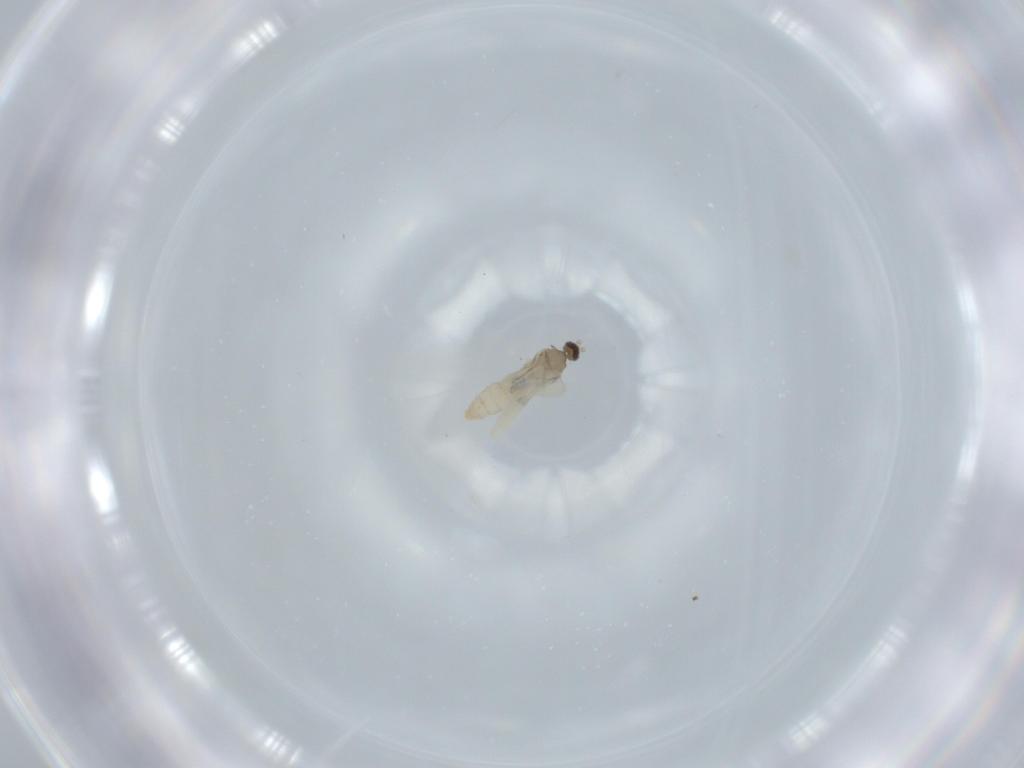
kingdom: Animalia
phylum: Arthropoda
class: Insecta
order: Diptera
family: Cecidomyiidae
